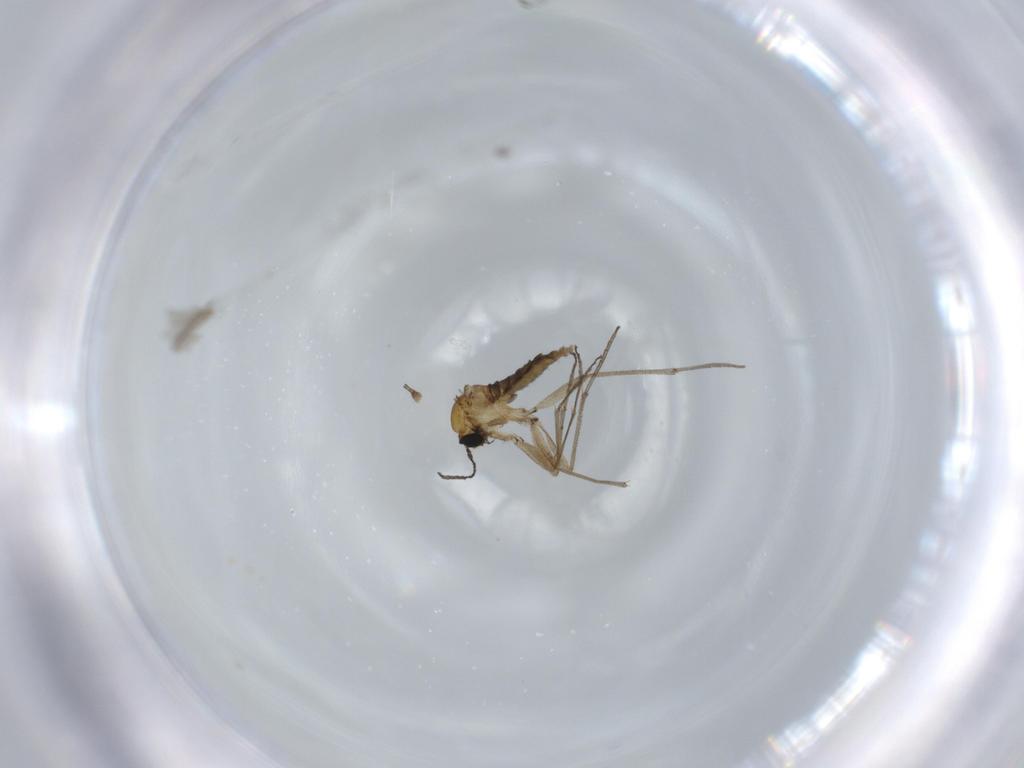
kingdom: Animalia
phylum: Arthropoda
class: Insecta
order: Diptera
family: Sciaridae
